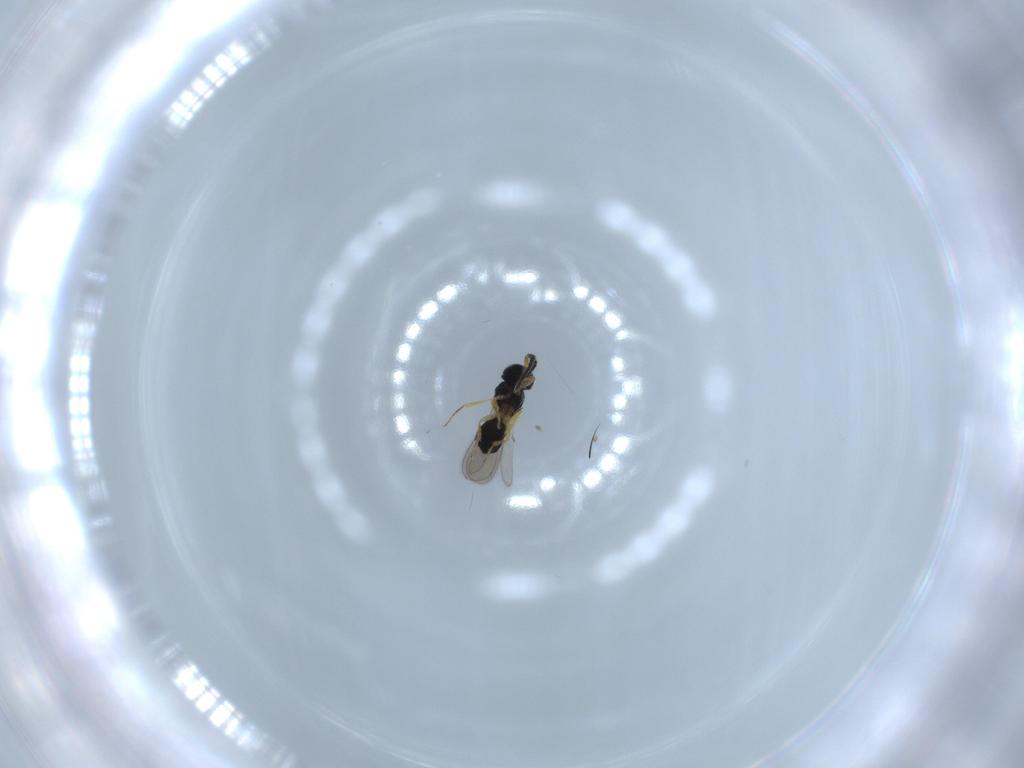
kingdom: Animalia
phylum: Arthropoda
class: Insecta
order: Hymenoptera
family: Scelionidae
